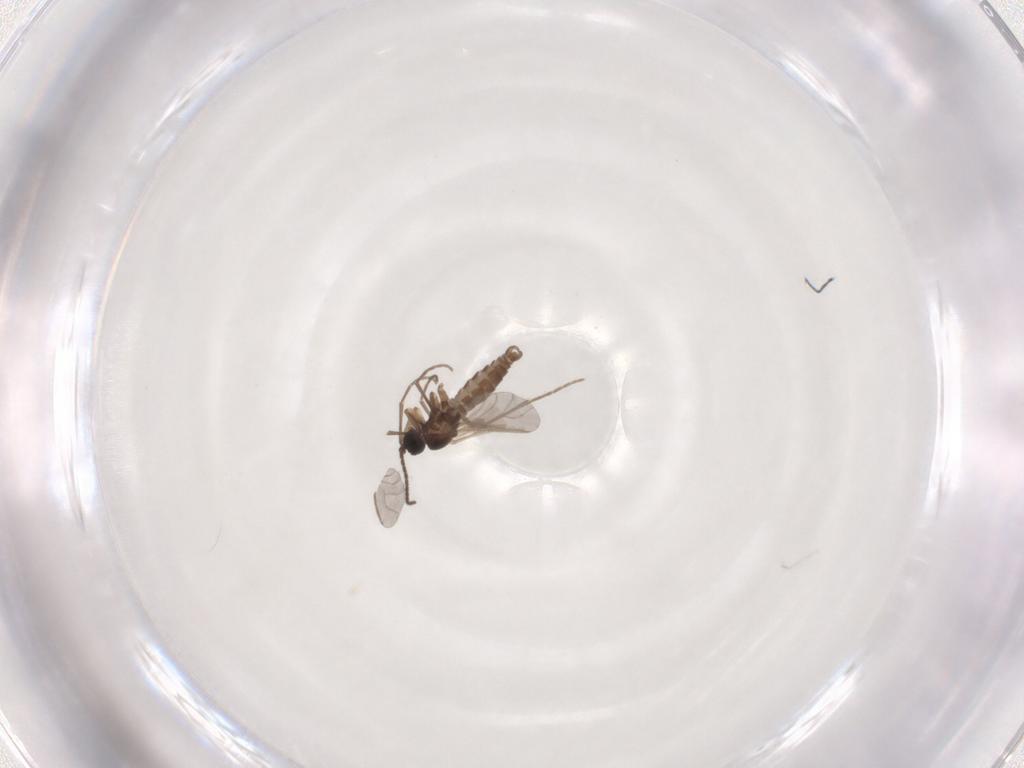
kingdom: Animalia
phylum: Arthropoda
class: Insecta
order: Diptera
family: Sciaridae
